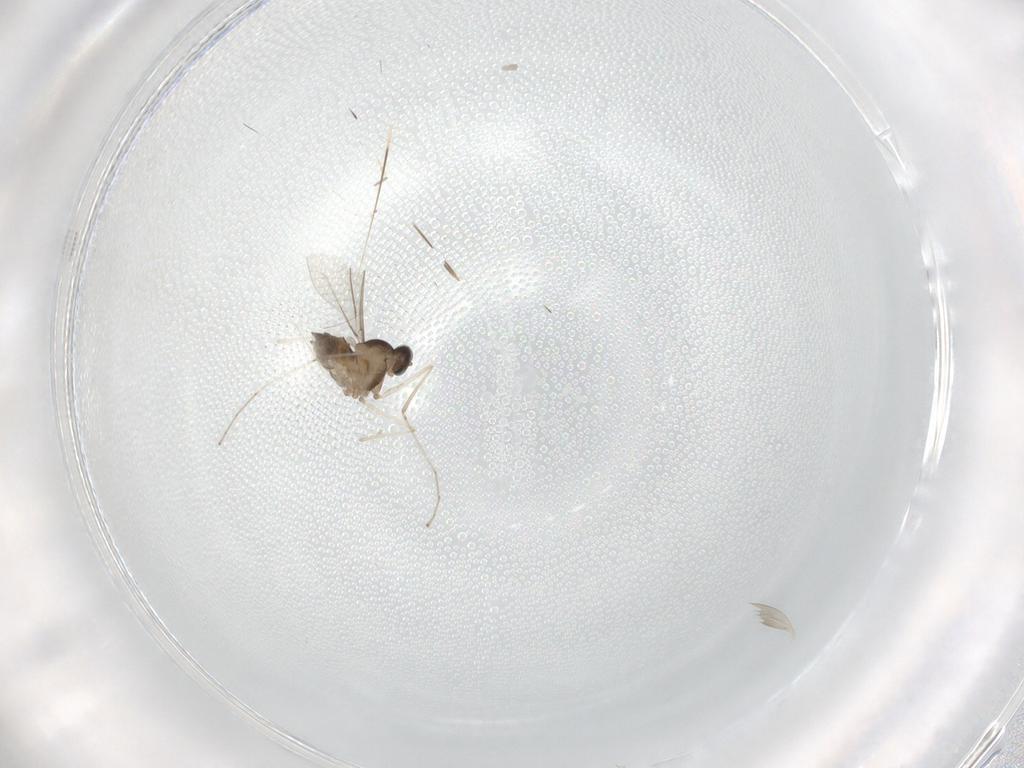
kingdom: Animalia
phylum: Arthropoda
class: Insecta
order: Diptera
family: Cecidomyiidae
